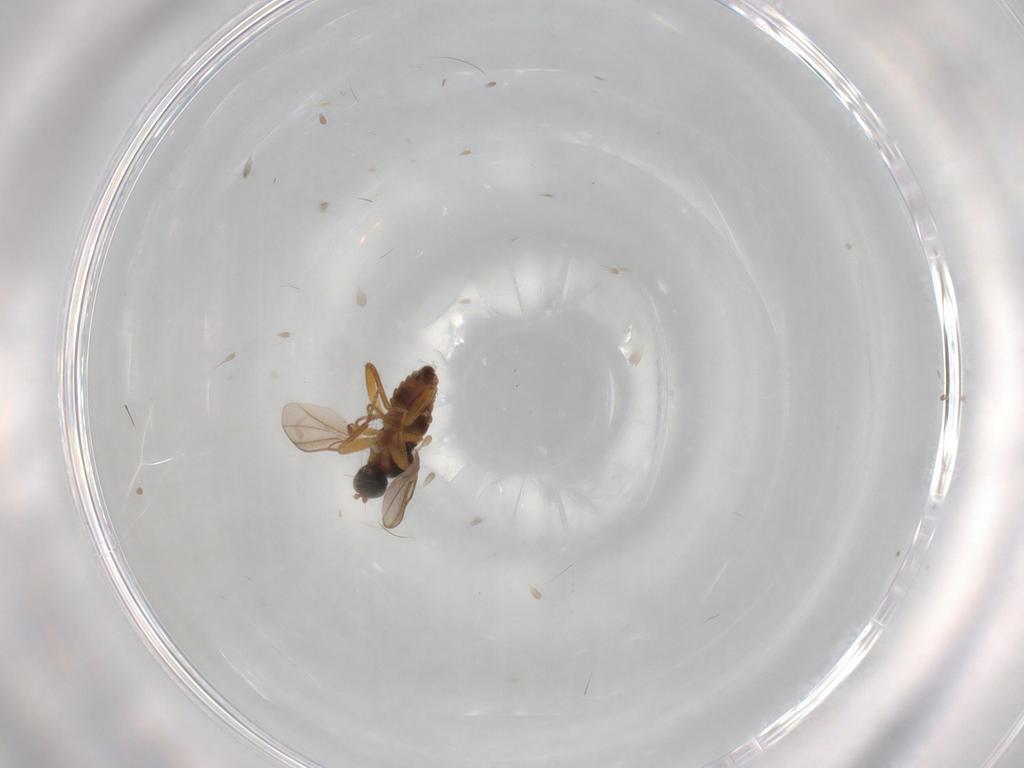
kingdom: Animalia
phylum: Arthropoda
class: Insecta
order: Diptera
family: Hybotidae
